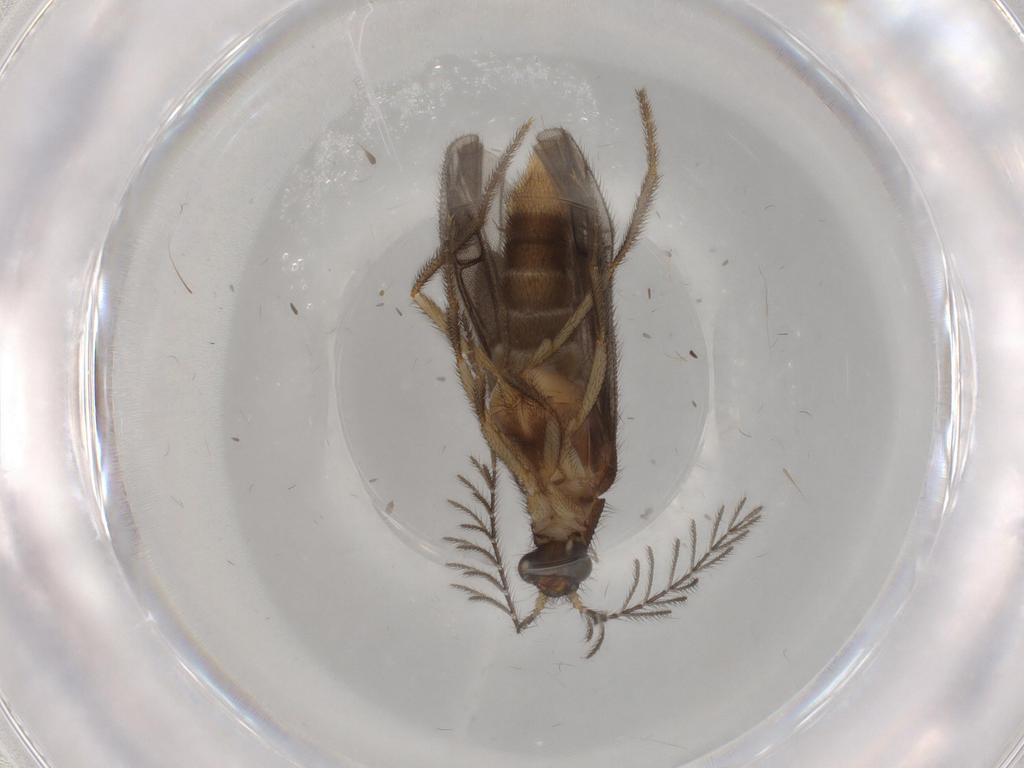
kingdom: Animalia
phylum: Arthropoda
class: Insecta
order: Coleoptera
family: Phengodidae
